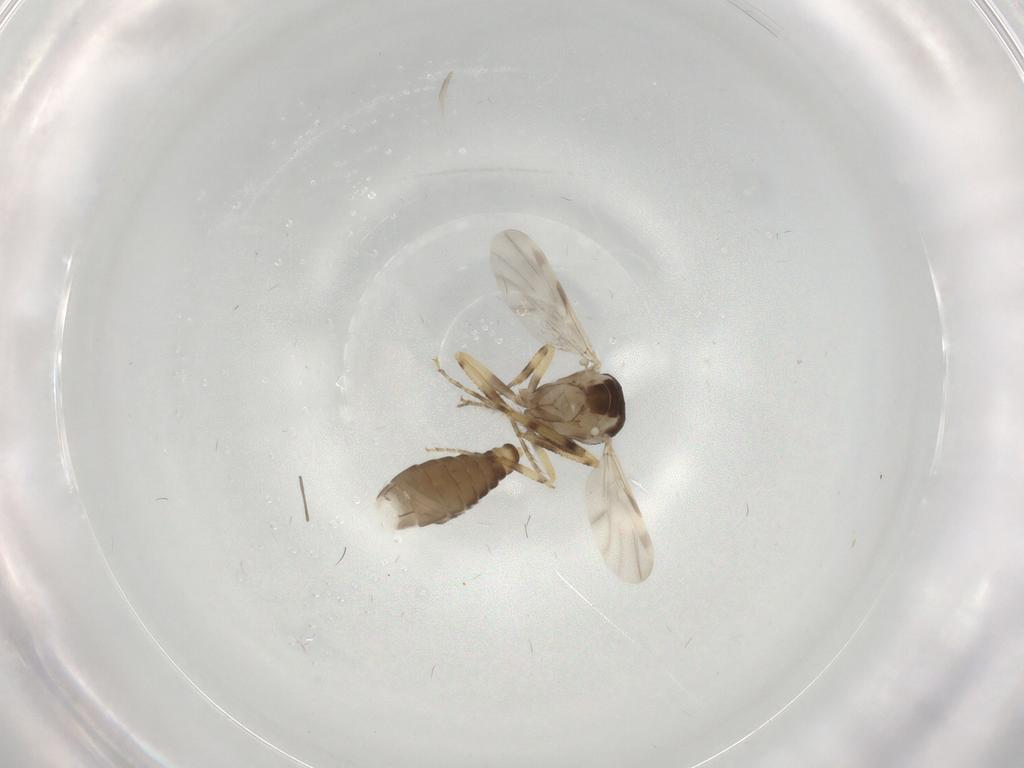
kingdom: Animalia
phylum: Arthropoda
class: Insecta
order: Diptera
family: Ceratopogonidae
